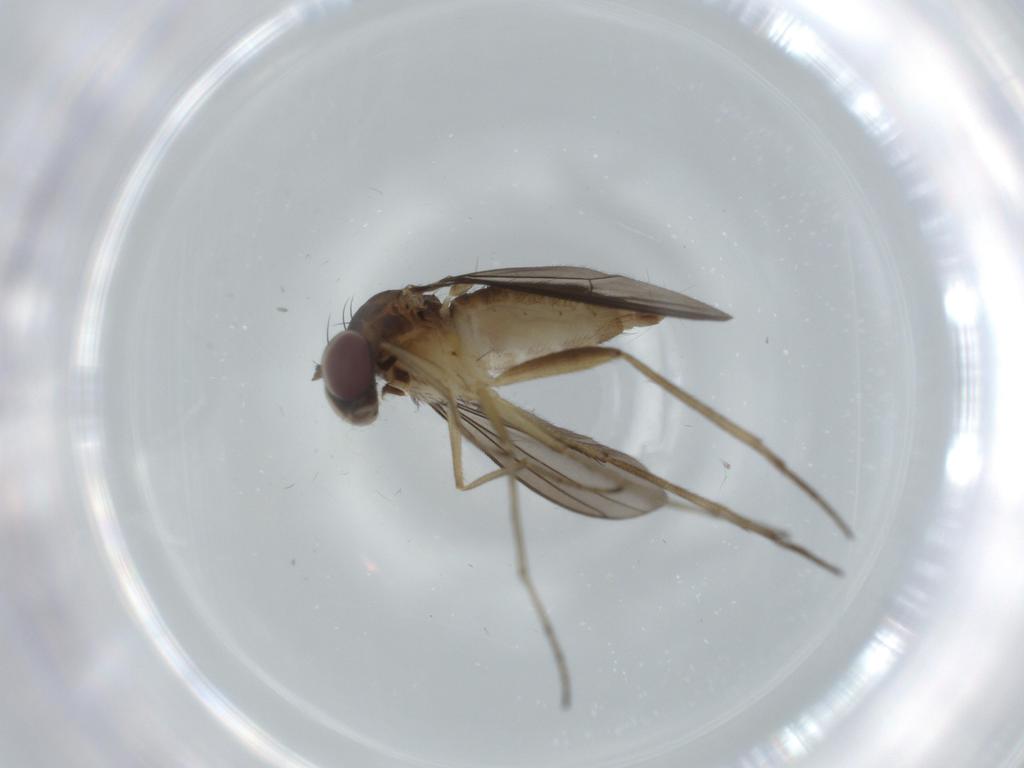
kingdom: Animalia
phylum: Arthropoda
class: Insecta
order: Diptera
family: Dolichopodidae
